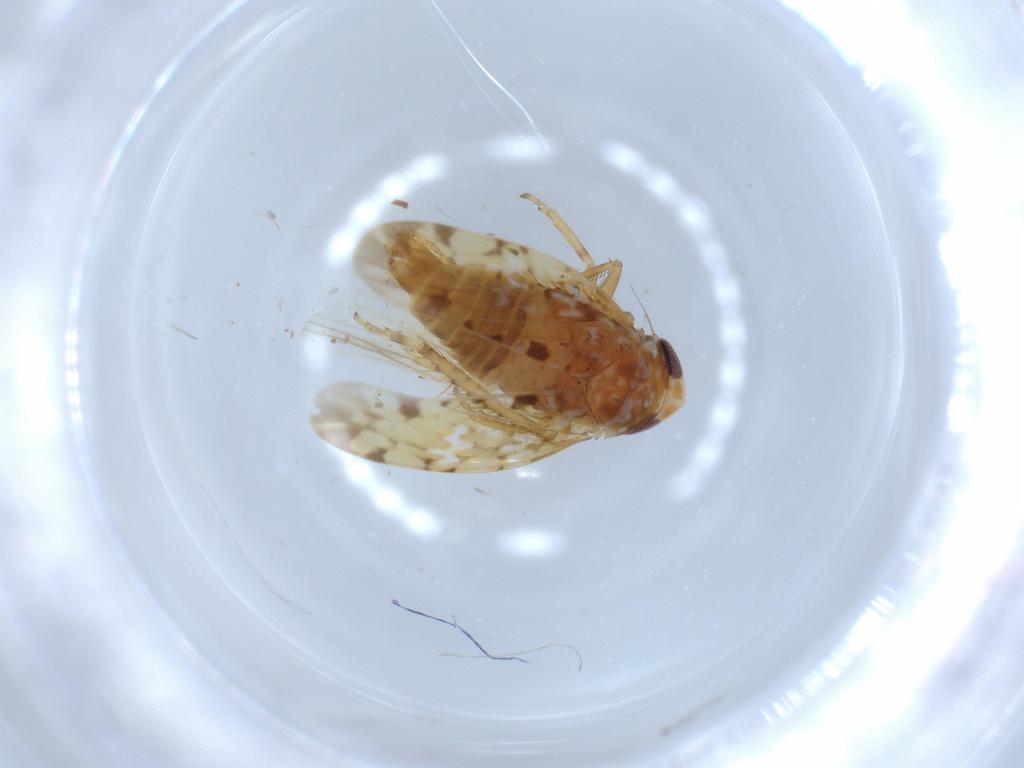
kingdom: Animalia
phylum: Arthropoda
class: Insecta
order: Hemiptera
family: Cicadellidae
